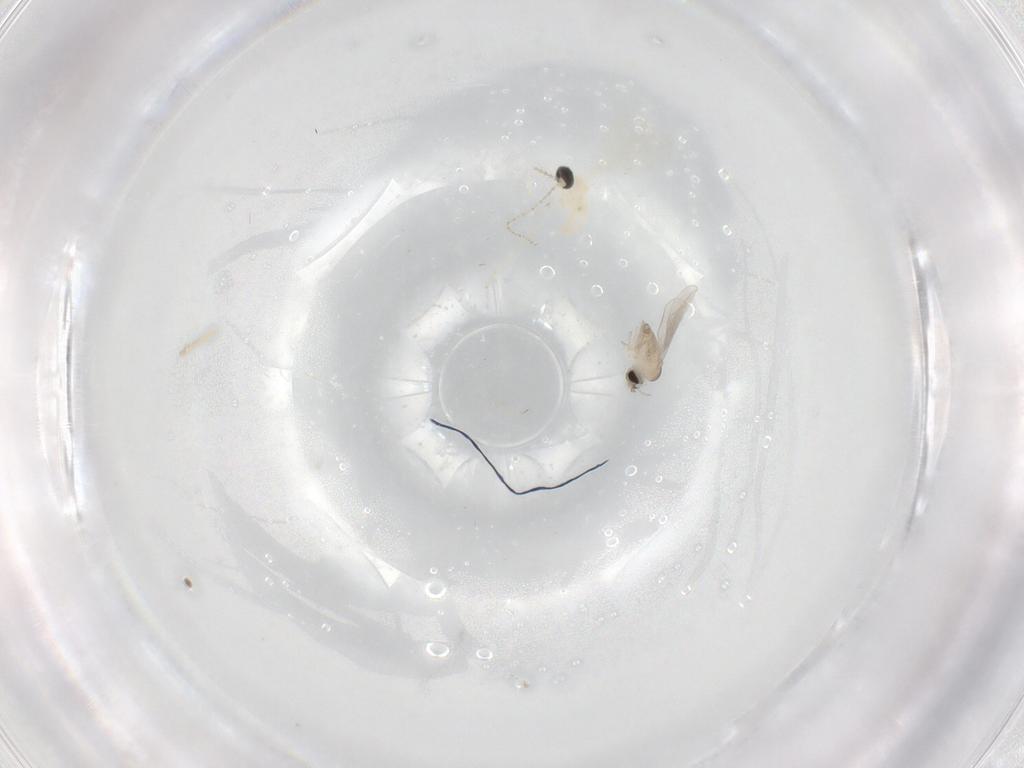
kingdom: Animalia
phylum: Arthropoda
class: Insecta
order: Diptera
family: Cecidomyiidae
